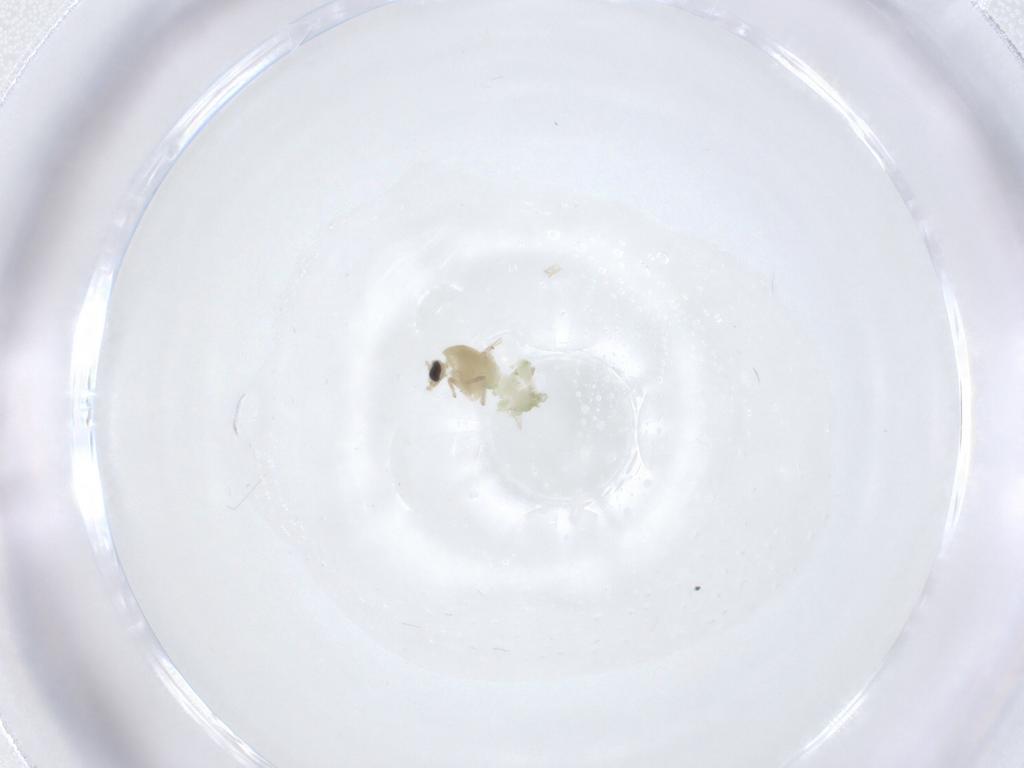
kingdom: Animalia
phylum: Arthropoda
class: Insecta
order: Diptera
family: Chironomidae
